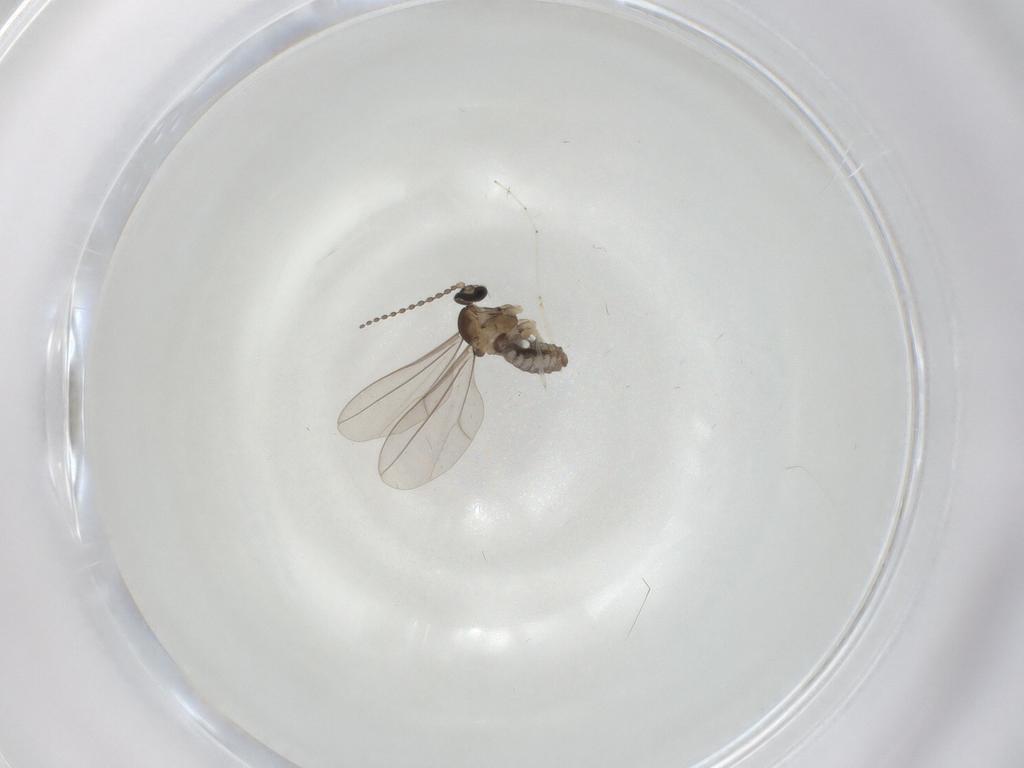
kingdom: Animalia
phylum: Arthropoda
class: Insecta
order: Diptera
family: Cecidomyiidae
